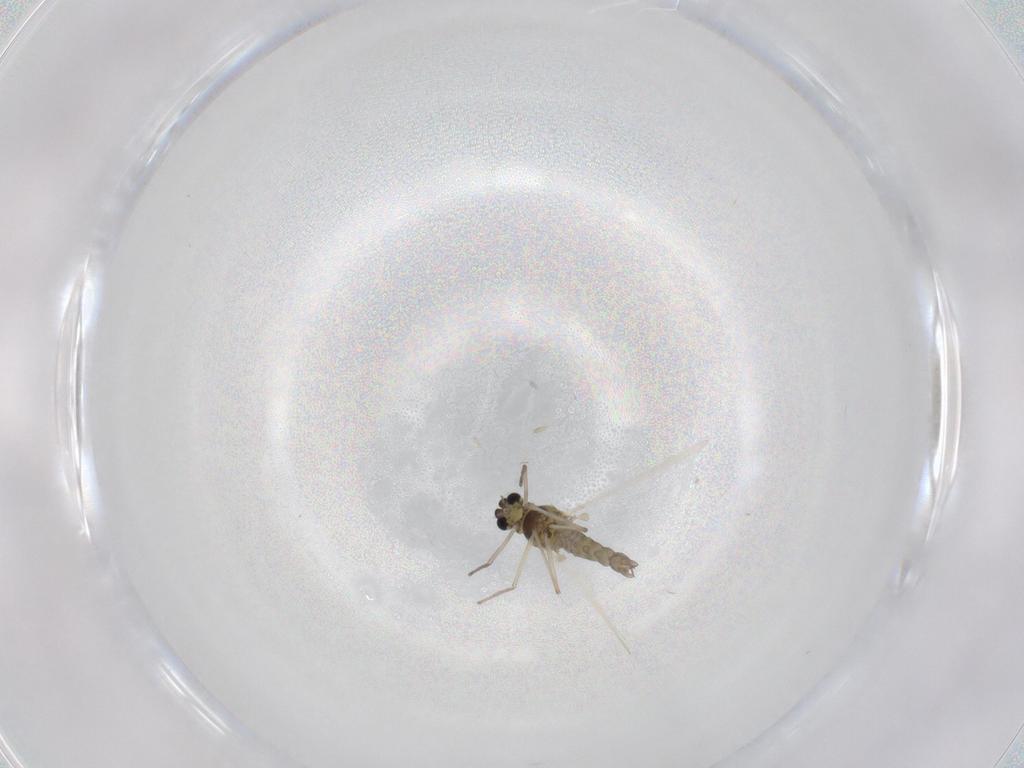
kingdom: Animalia
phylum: Arthropoda
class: Insecta
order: Diptera
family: Chironomidae
